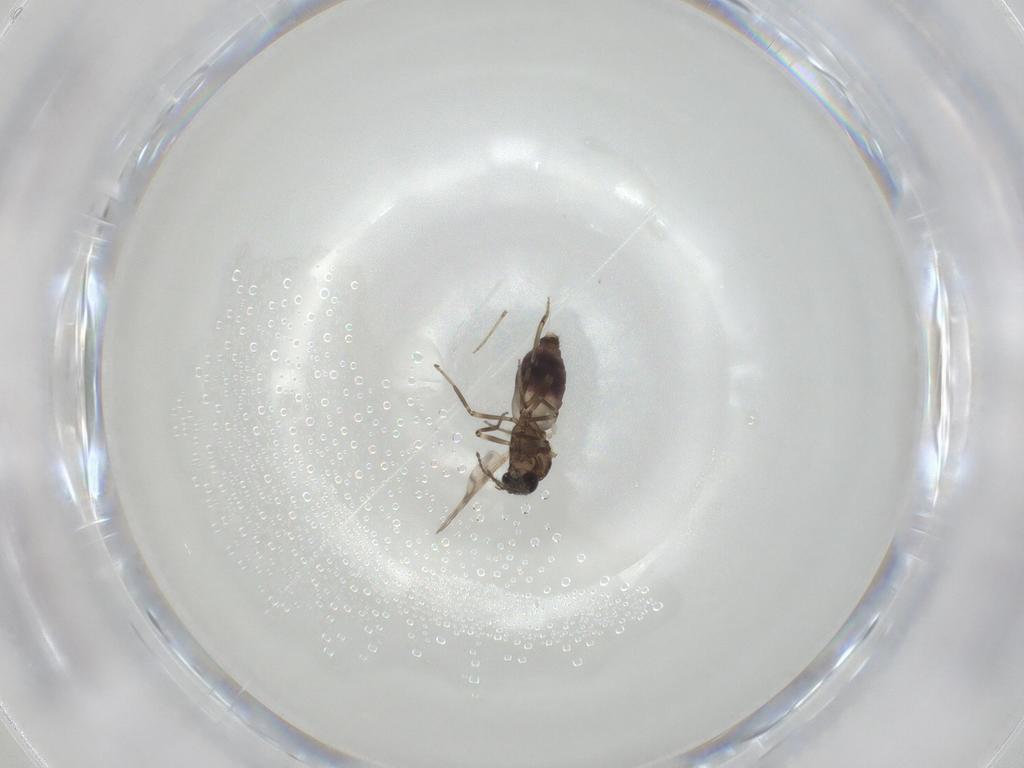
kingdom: Animalia
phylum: Arthropoda
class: Insecta
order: Diptera
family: Ceratopogonidae
